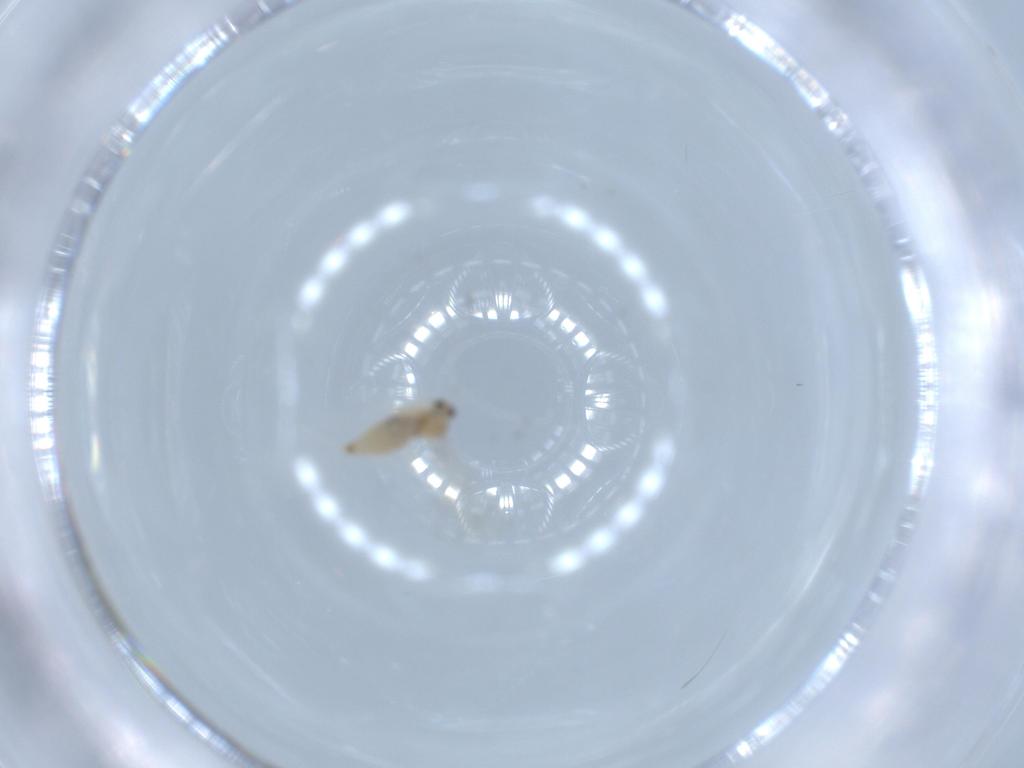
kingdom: Animalia
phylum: Arthropoda
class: Insecta
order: Diptera
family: Cecidomyiidae
